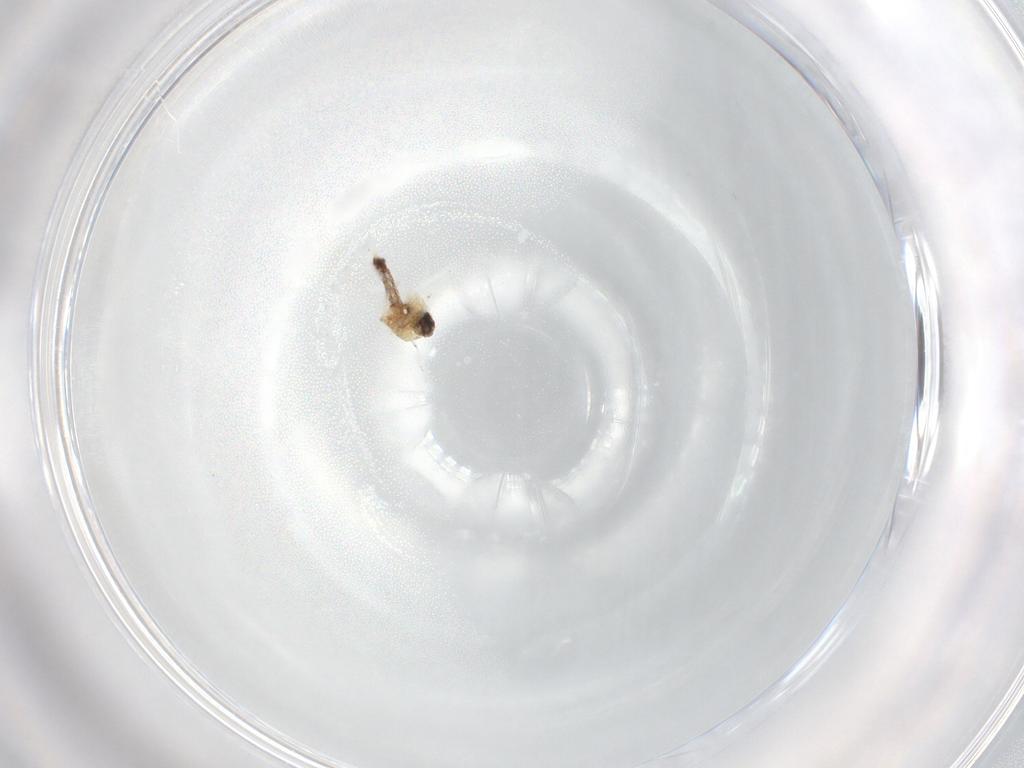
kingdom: Animalia
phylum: Arthropoda
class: Insecta
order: Diptera
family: Ceratopogonidae
